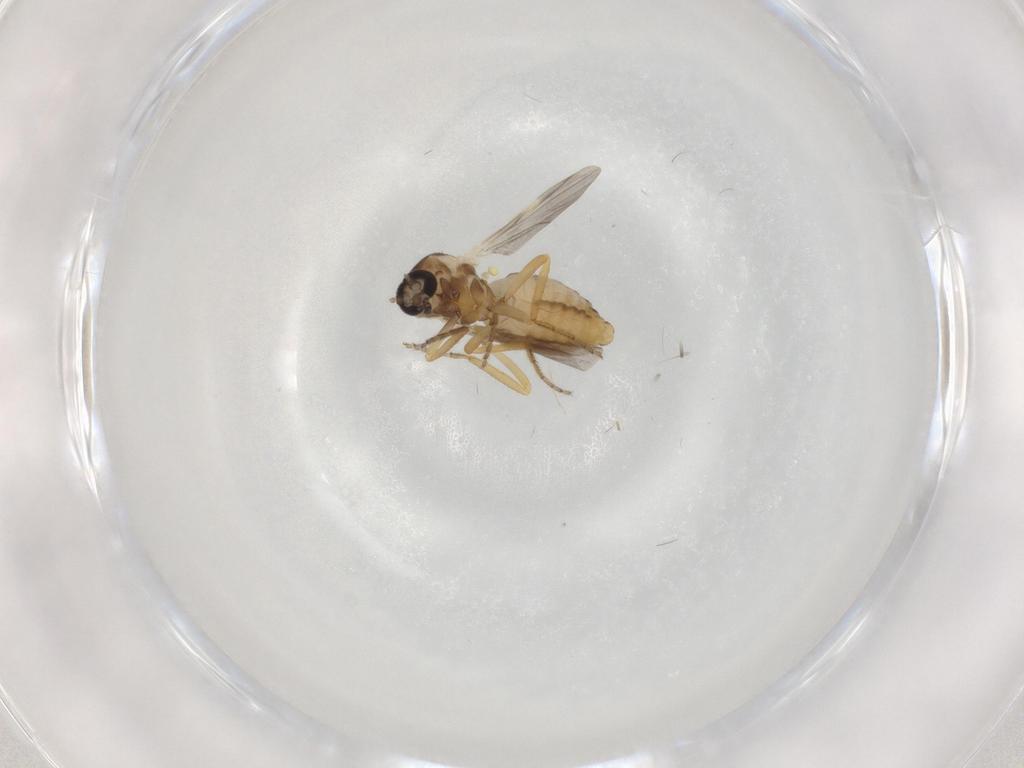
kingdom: Animalia
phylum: Arthropoda
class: Insecta
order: Diptera
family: Ceratopogonidae
